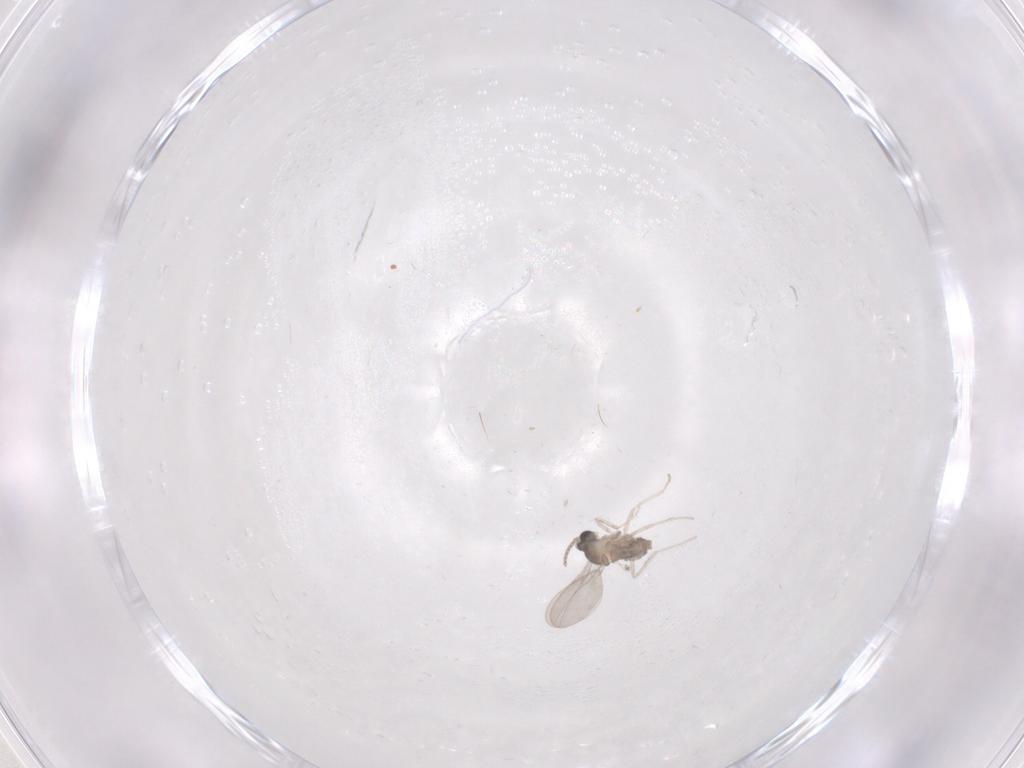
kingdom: Animalia
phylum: Arthropoda
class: Insecta
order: Diptera
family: Cecidomyiidae
